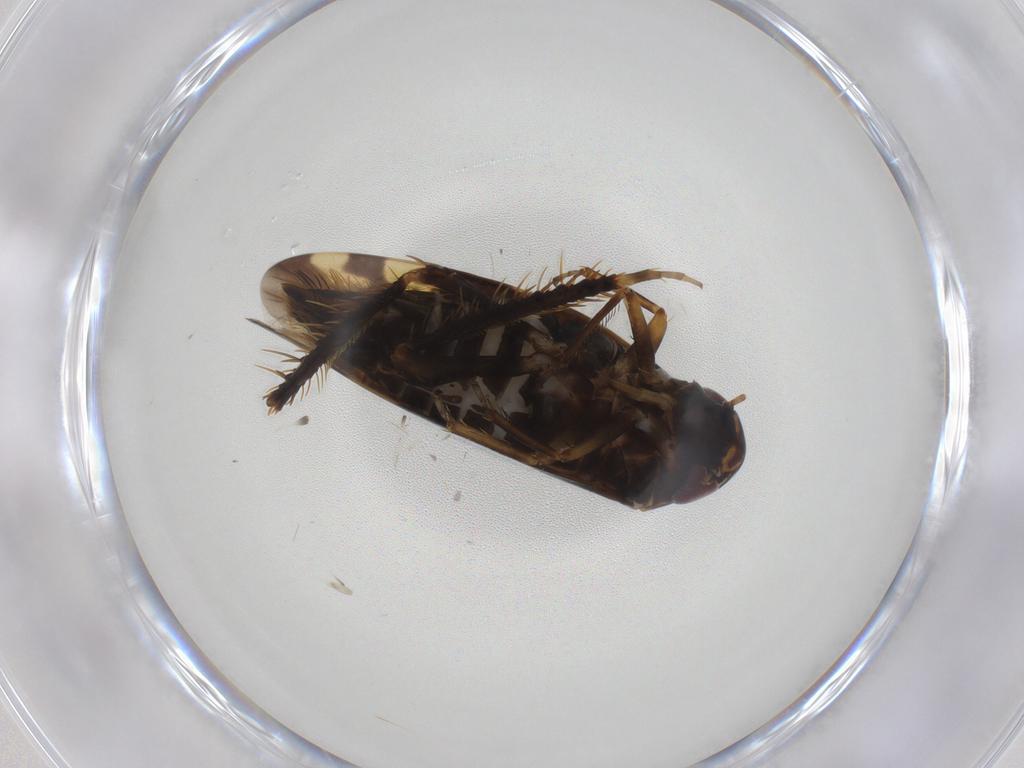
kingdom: Animalia
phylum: Arthropoda
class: Insecta
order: Hemiptera
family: Cicadellidae
